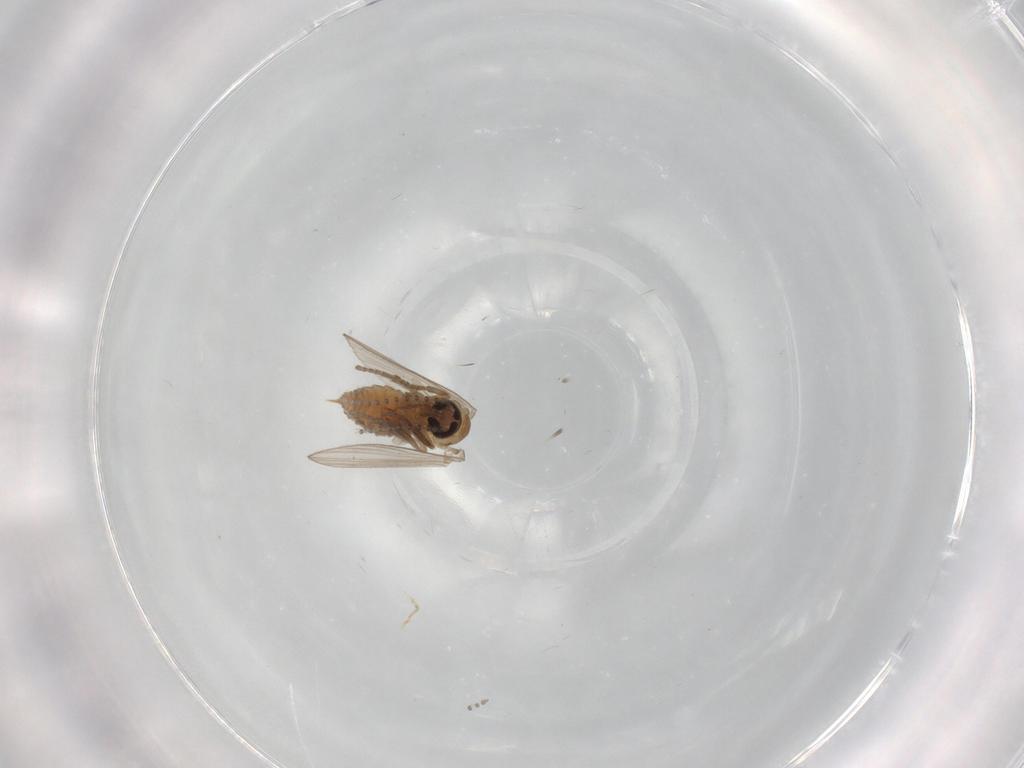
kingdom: Animalia
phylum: Arthropoda
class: Insecta
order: Diptera
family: Psychodidae
